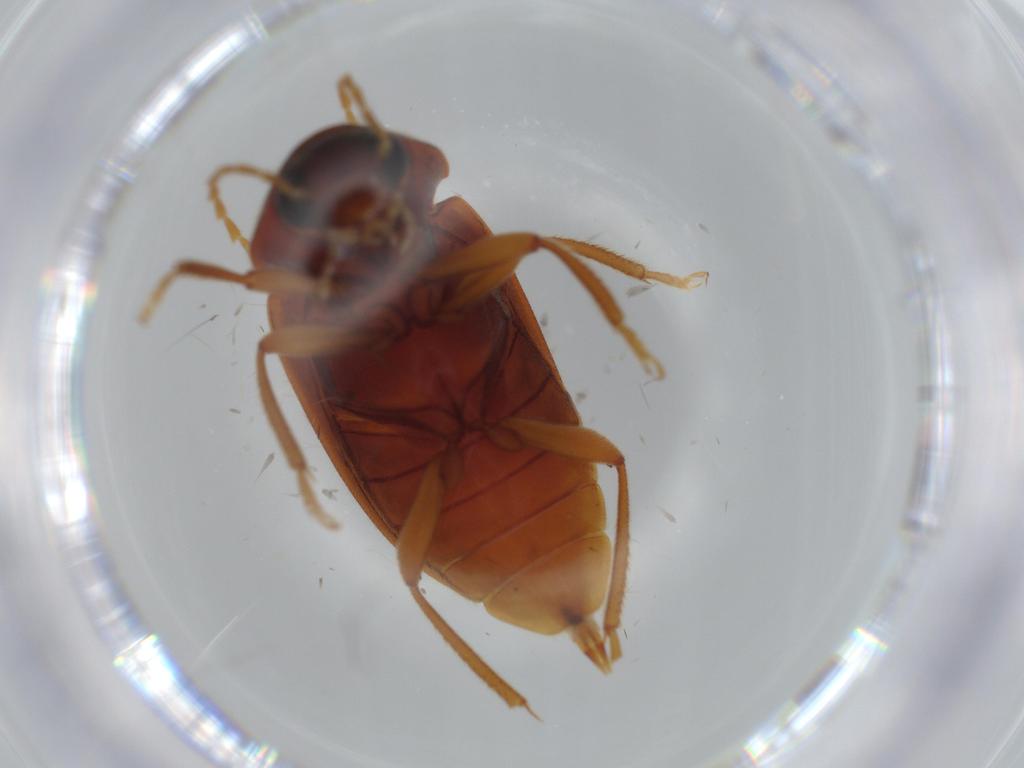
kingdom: Animalia
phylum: Arthropoda
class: Insecta
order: Coleoptera
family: Ptilodactylidae
